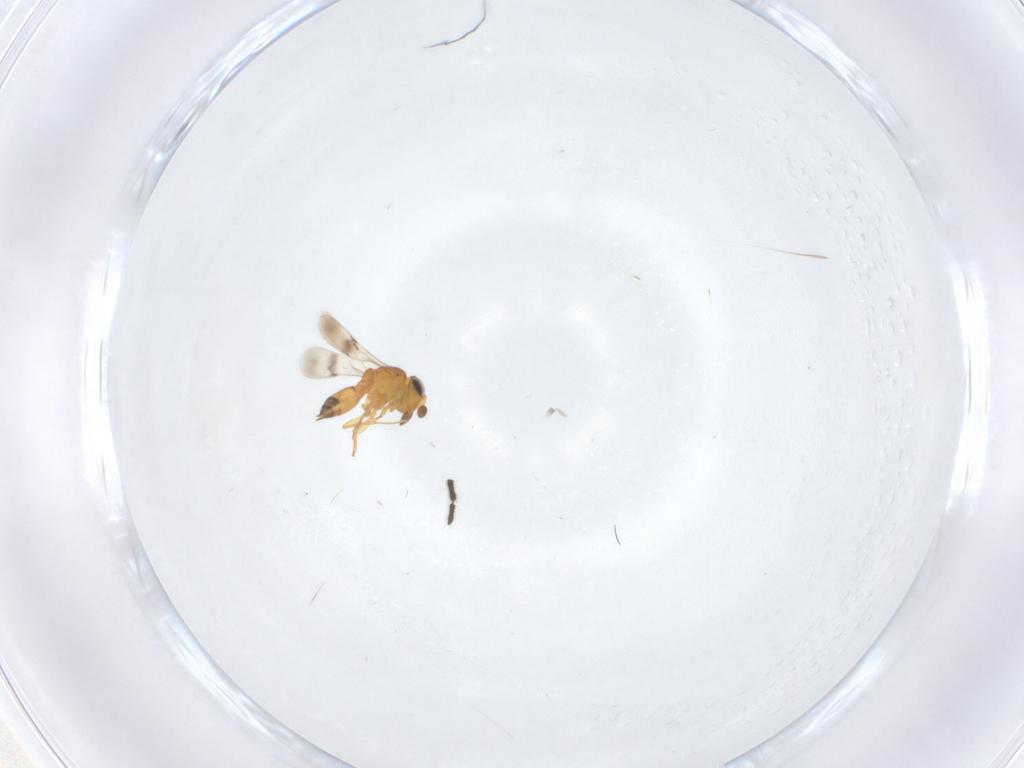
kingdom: Animalia
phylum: Arthropoda
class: Insecta
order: Hymenoptera
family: Scelionidae
